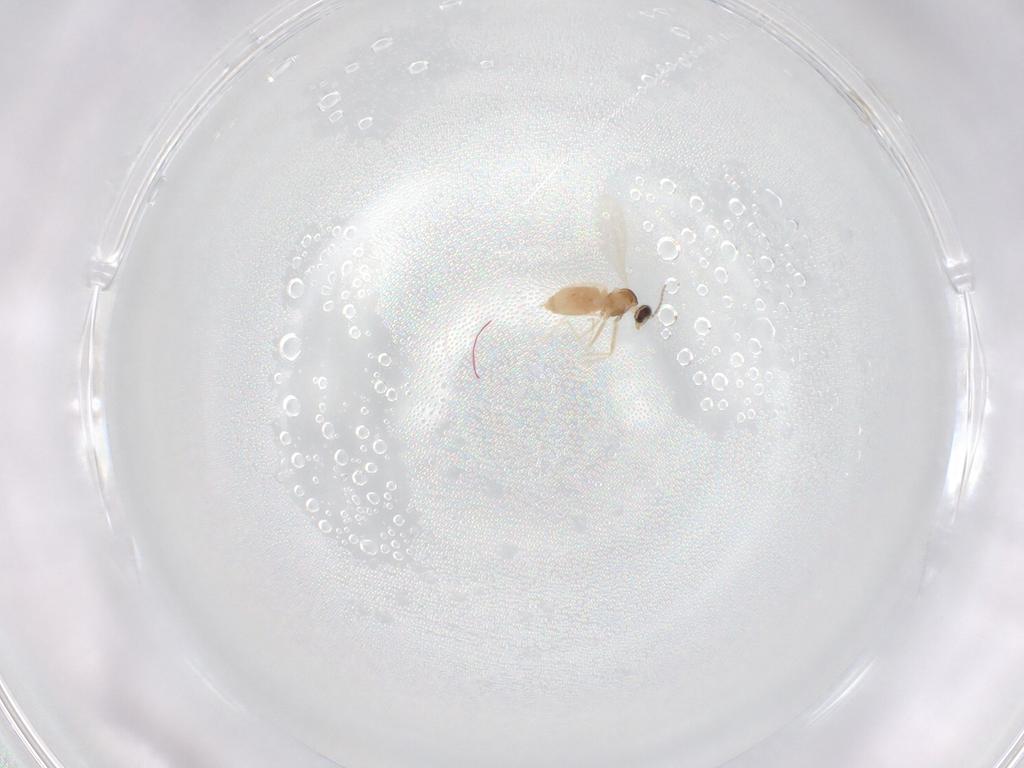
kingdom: Animalia
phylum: Arthropoda
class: Insecta
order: Diptera
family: Cecidomyiidae
